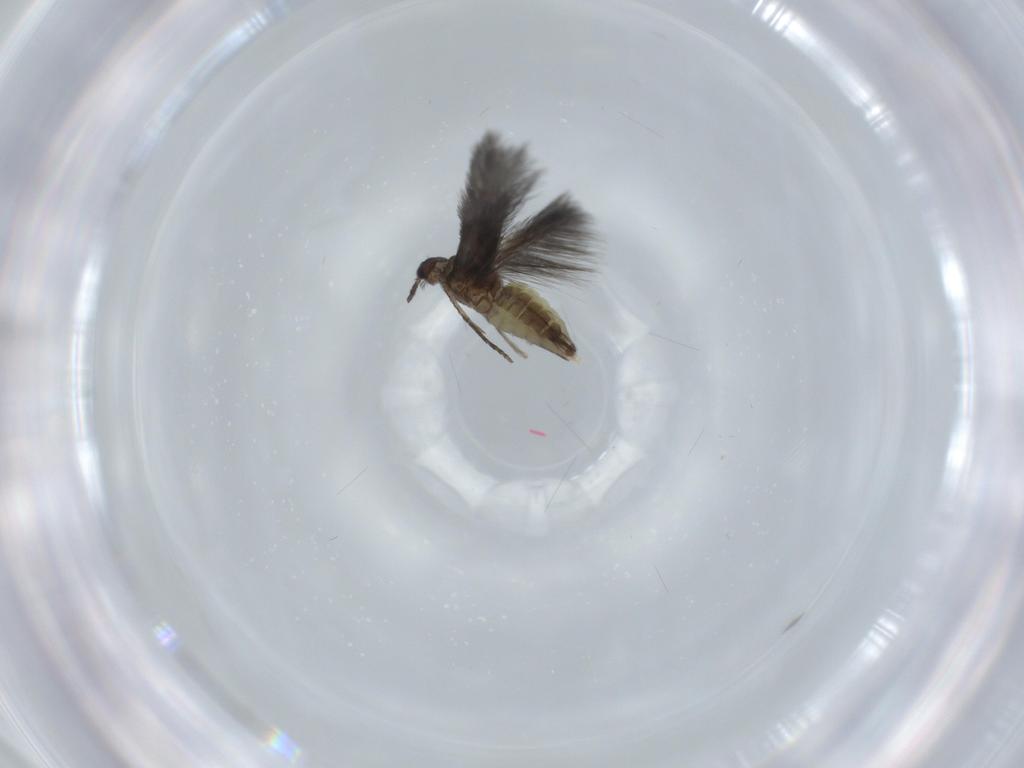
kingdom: Animalia
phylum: Arthropoda
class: Insecta
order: Trichoptera
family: Hydroptilidae
